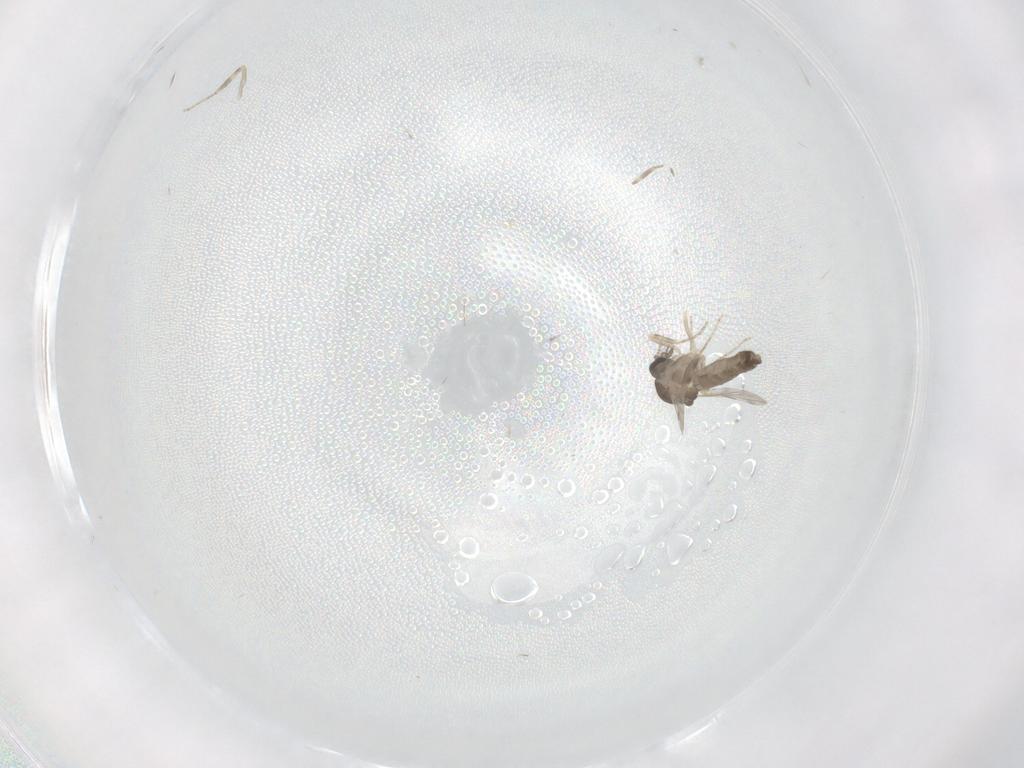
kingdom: Animalia
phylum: Arthropoda
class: Insecta
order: Diptera
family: Ceratopogonidae
